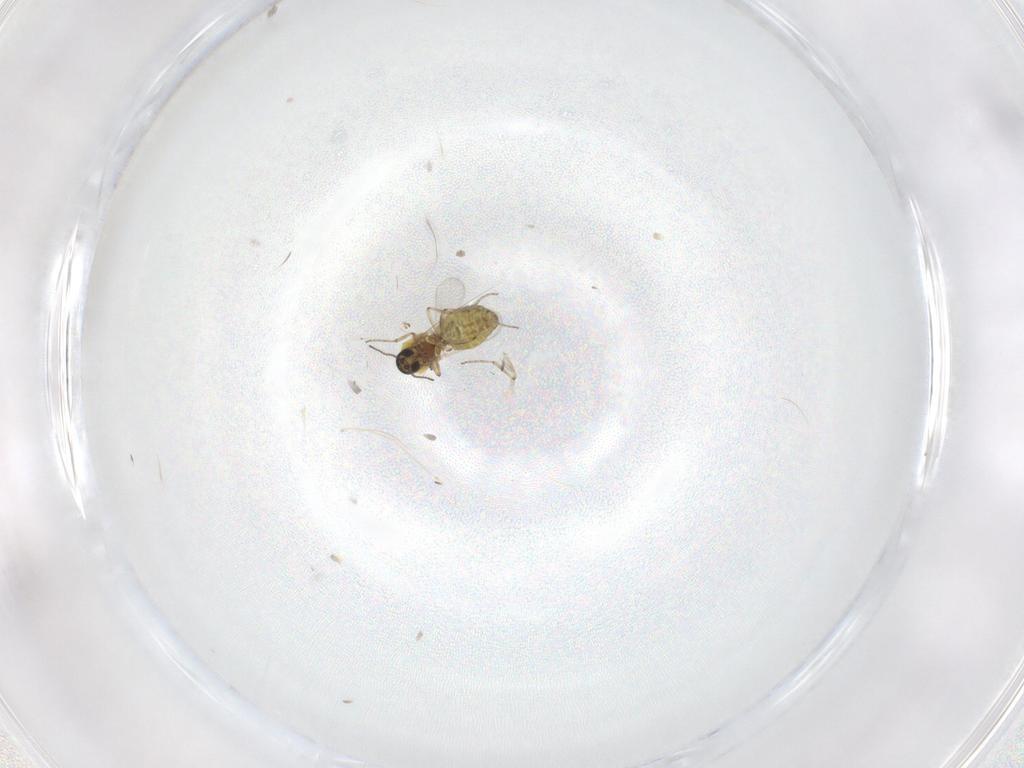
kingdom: Animalia
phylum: Arthropoda
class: Insecta
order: Diptera
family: Ceratopogonidae
